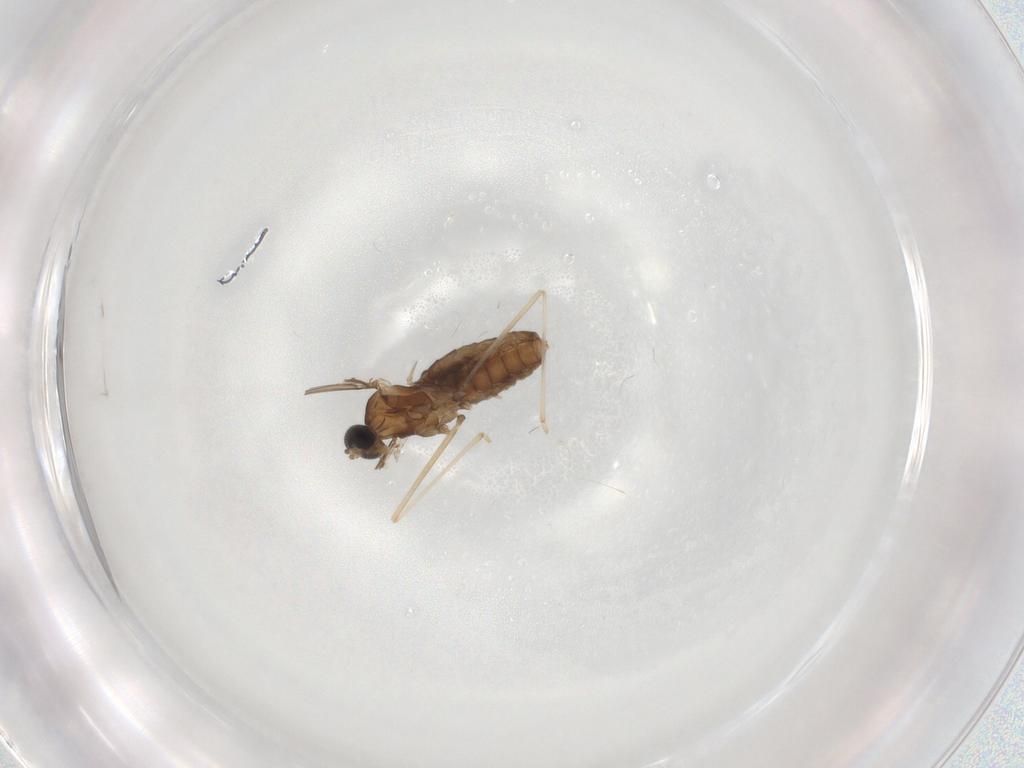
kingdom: Animalia
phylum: Arthropoda
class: Insecta
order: Diptera
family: Cecidomyiidae
